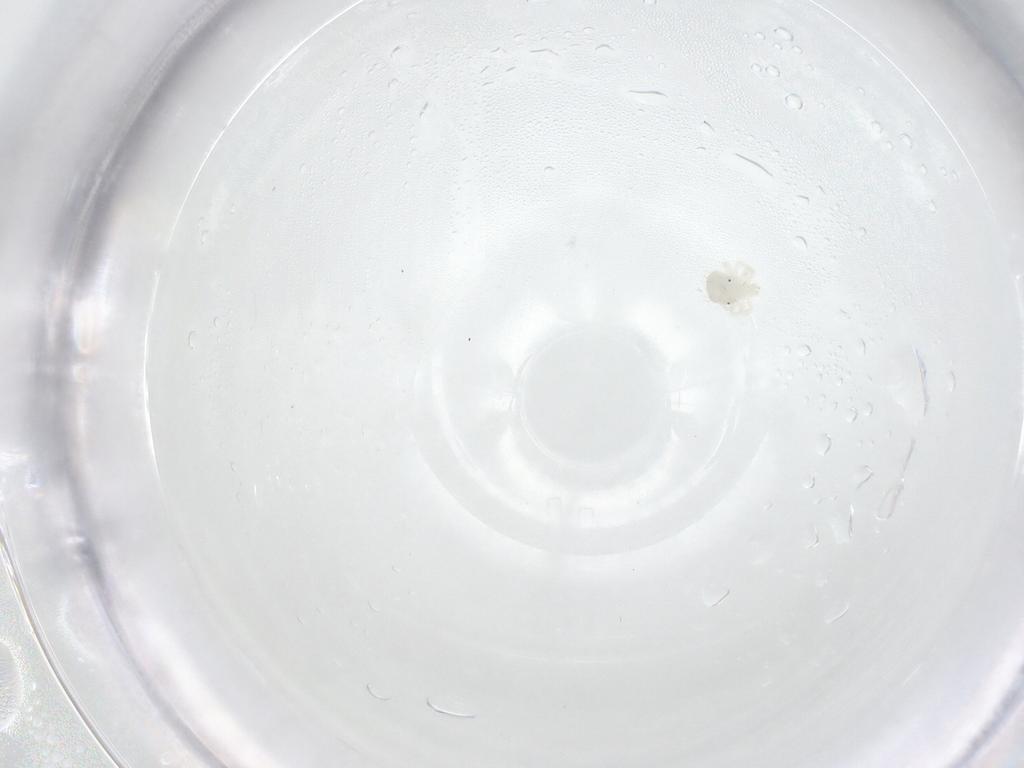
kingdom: Animalia
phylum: Arthropoda
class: Arachnida
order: Trombidiformes
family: Anystidae
